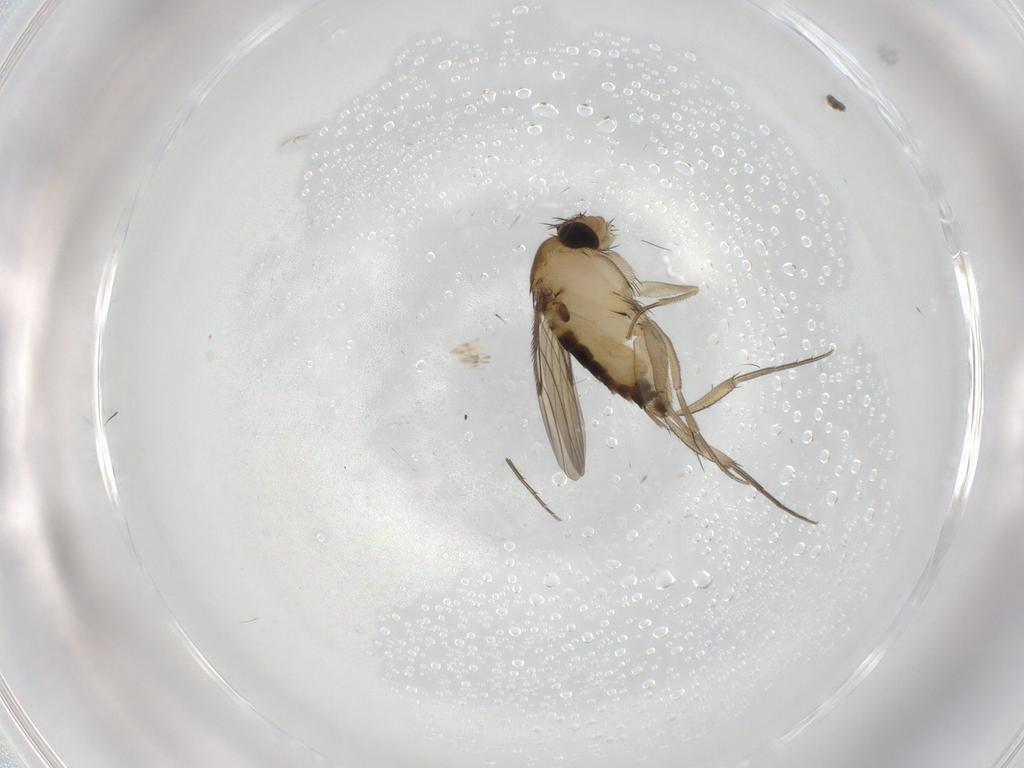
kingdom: Animalia
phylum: Arthropoda
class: Insecta
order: Diptera
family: Phoridae
